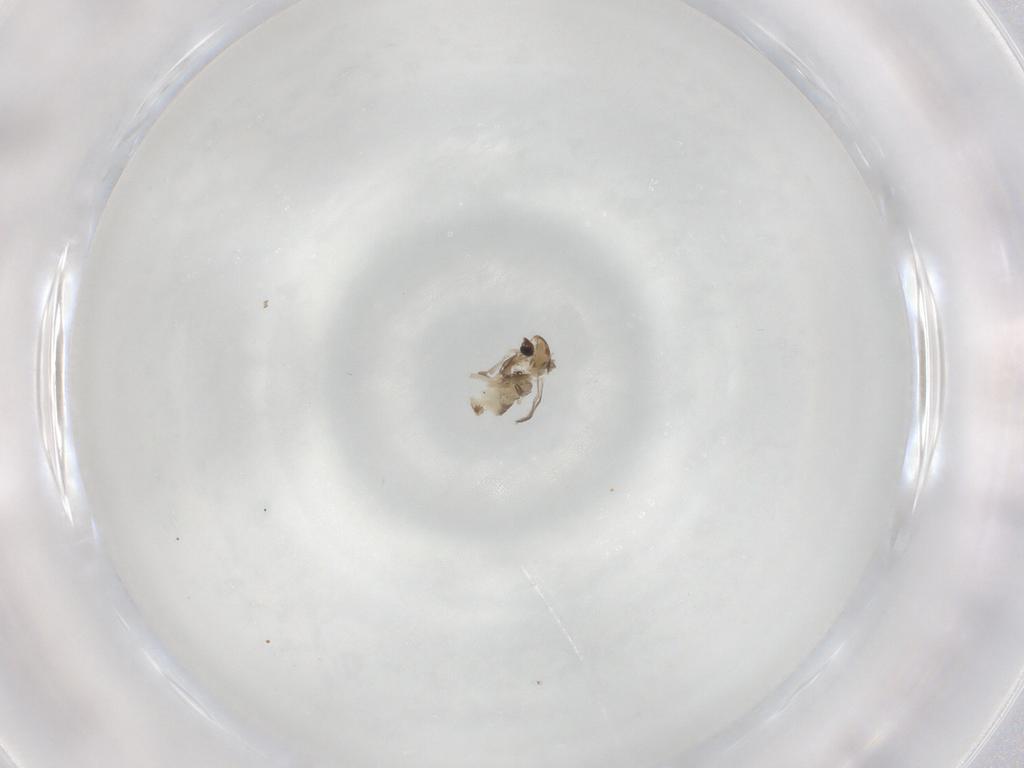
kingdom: Animalia
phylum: Arthropoda
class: Insecta
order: Diptera
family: Chironomidae
